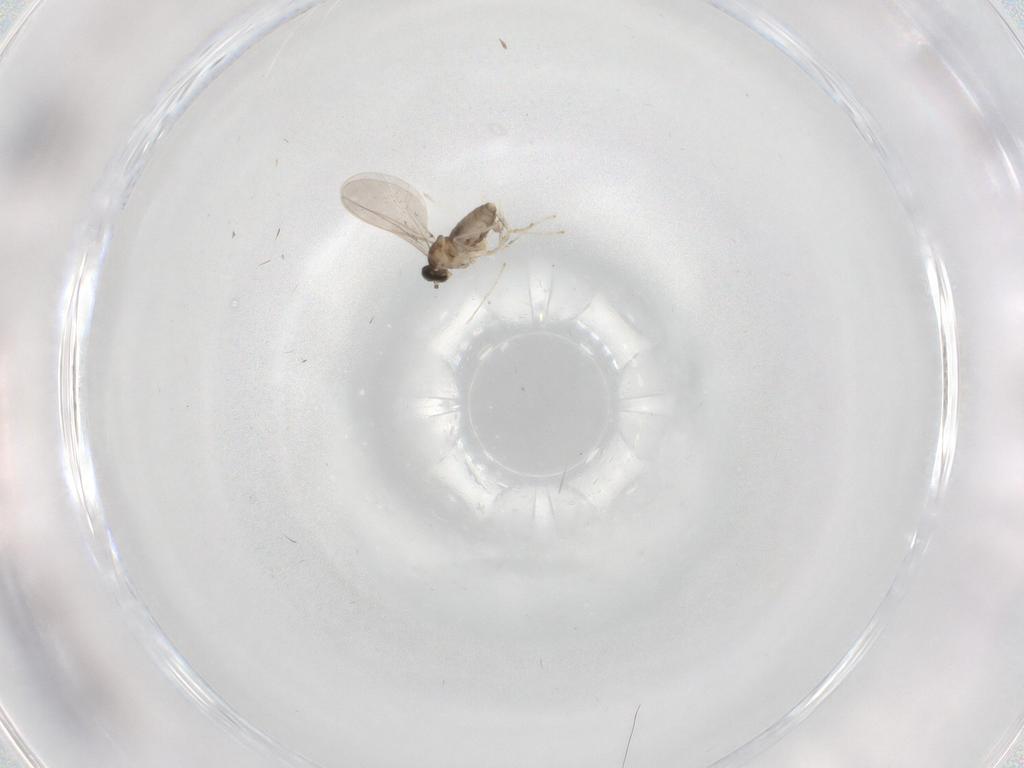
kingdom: Animalia
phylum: Arthropoda
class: Insecta
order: Diptera
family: Cecidomyiidae
